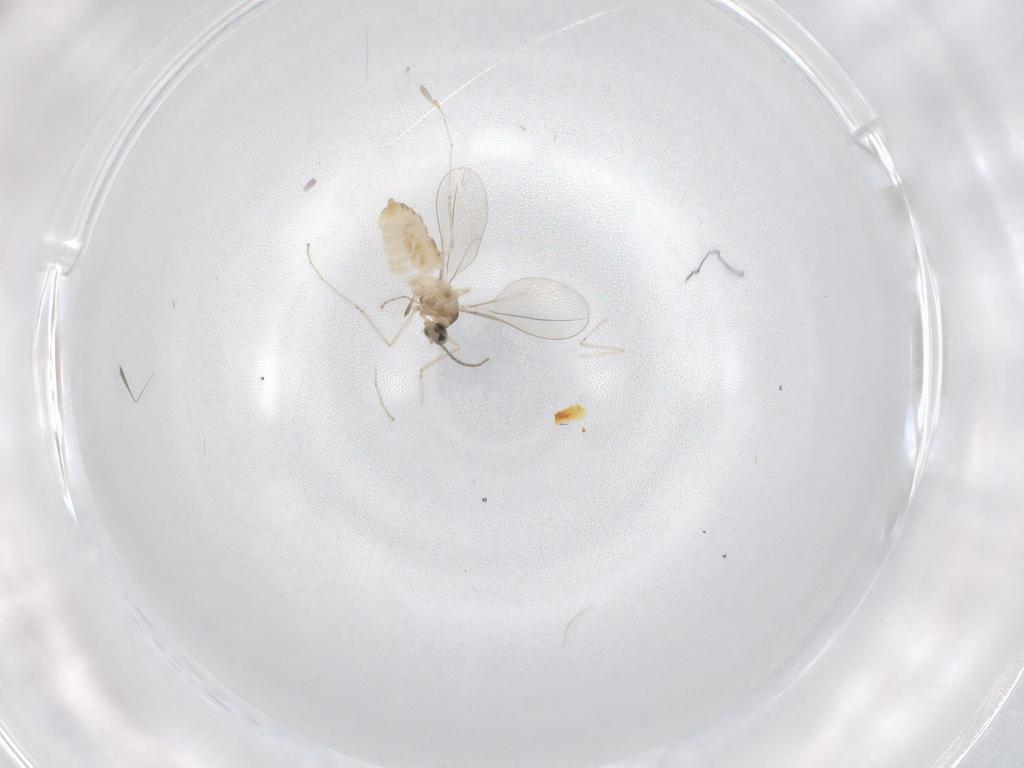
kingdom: Animalia
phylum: Arthropoda
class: Insecta
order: Diptera
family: Cecidomyiidae
